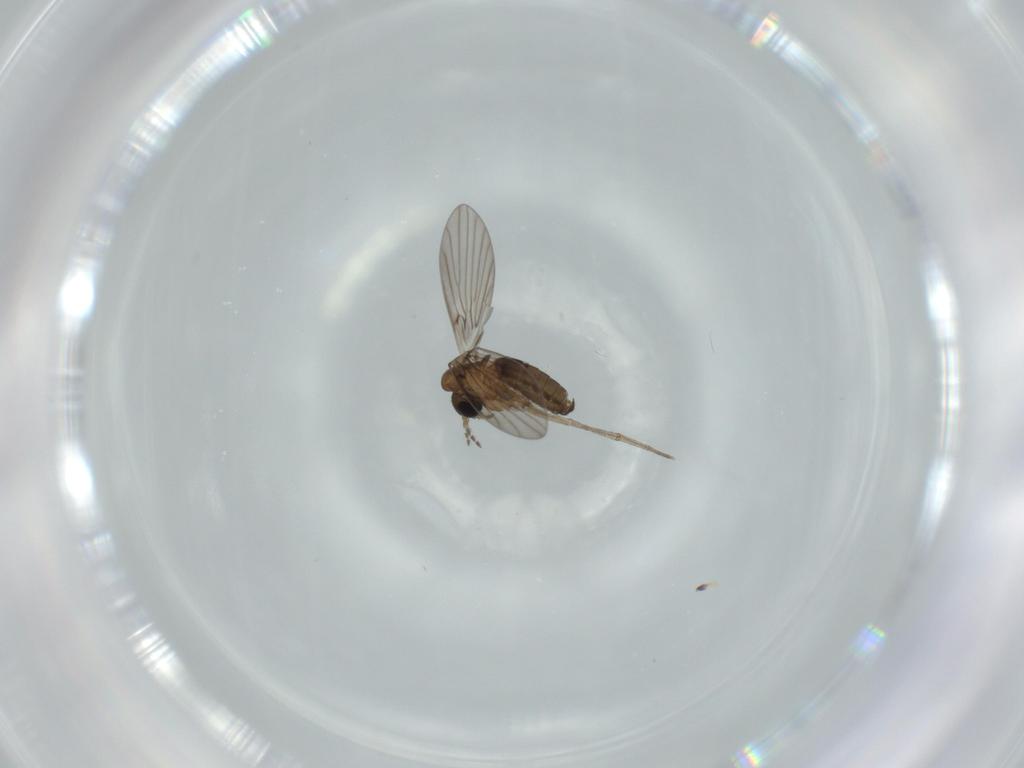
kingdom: Animalia
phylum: Arthropoda
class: Insecta
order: Diptera
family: Psychodidae
